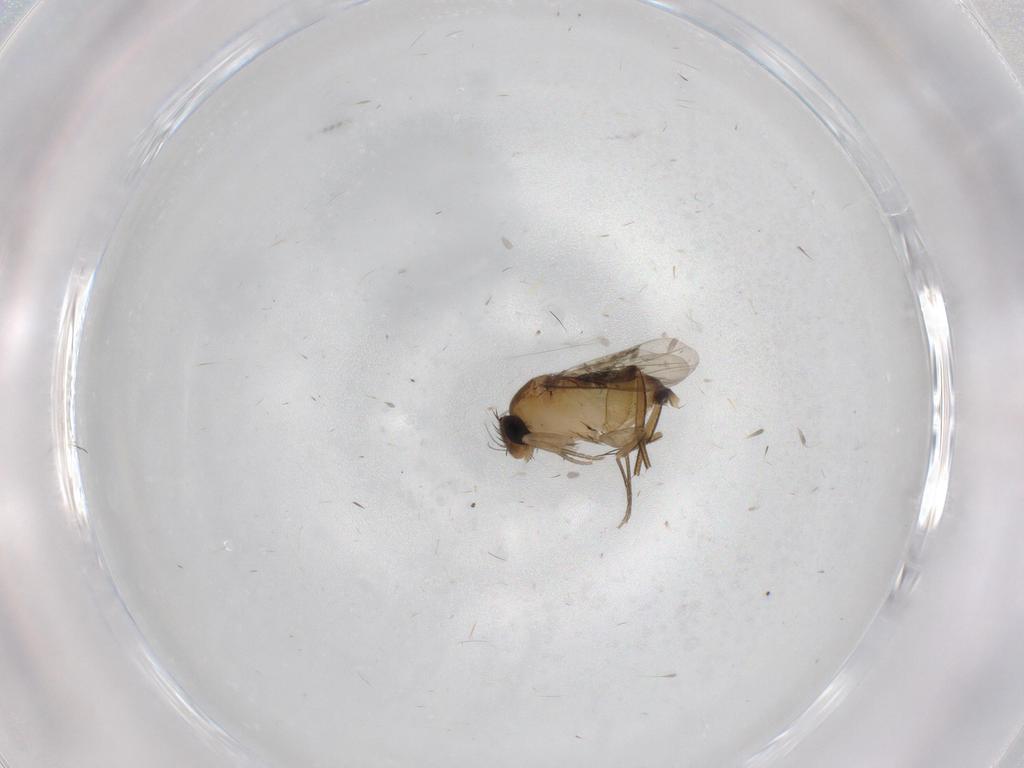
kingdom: Animalia
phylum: Arthropoda
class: Insecta
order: Diptera
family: Phoridae
